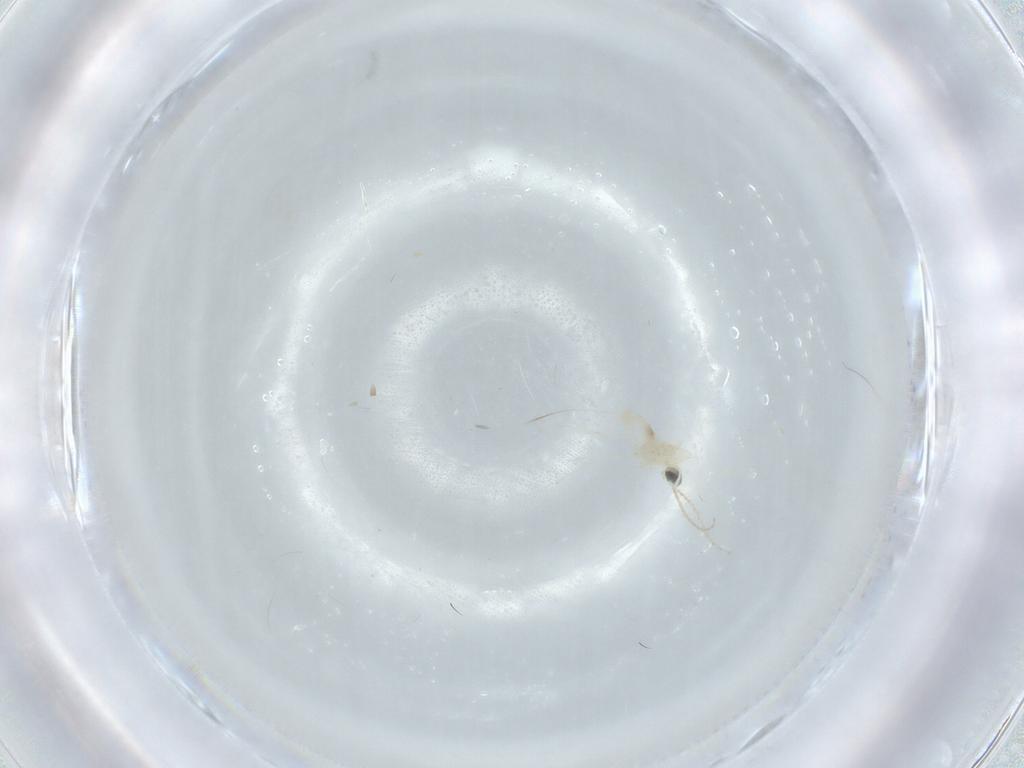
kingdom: Animalia
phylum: Arthropoda
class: Insecta
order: Diptera
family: Cecidomyiidae
